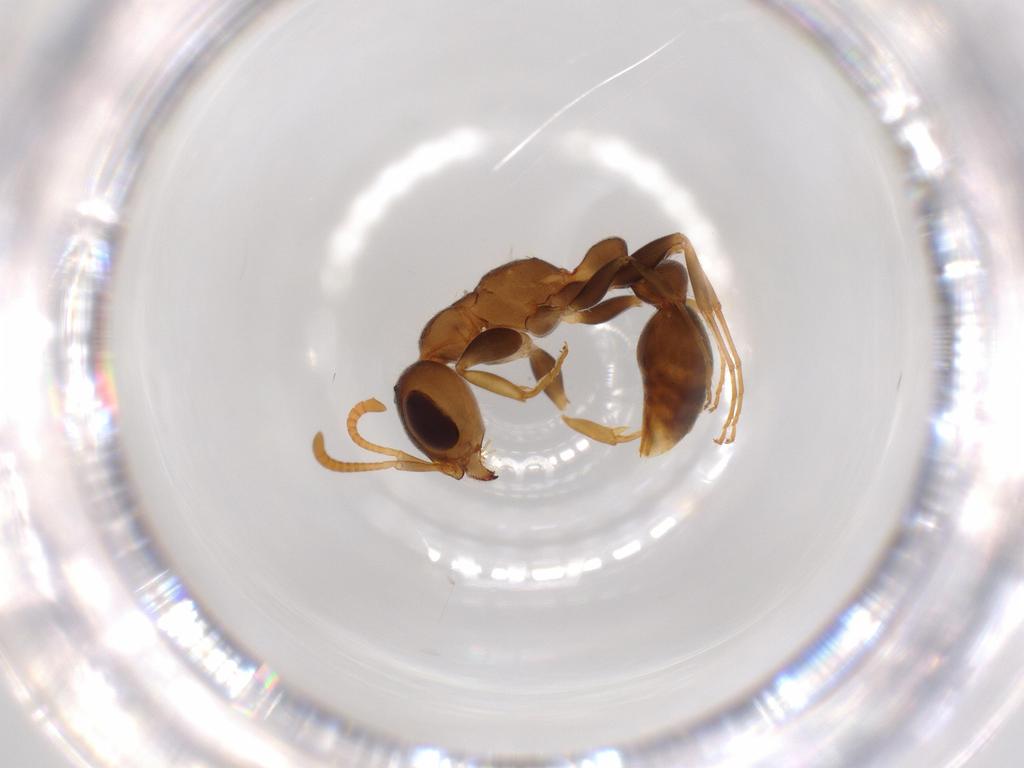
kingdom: Animalia
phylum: Arthropoda
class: Insecta
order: Hymenoptera
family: Formicidae
